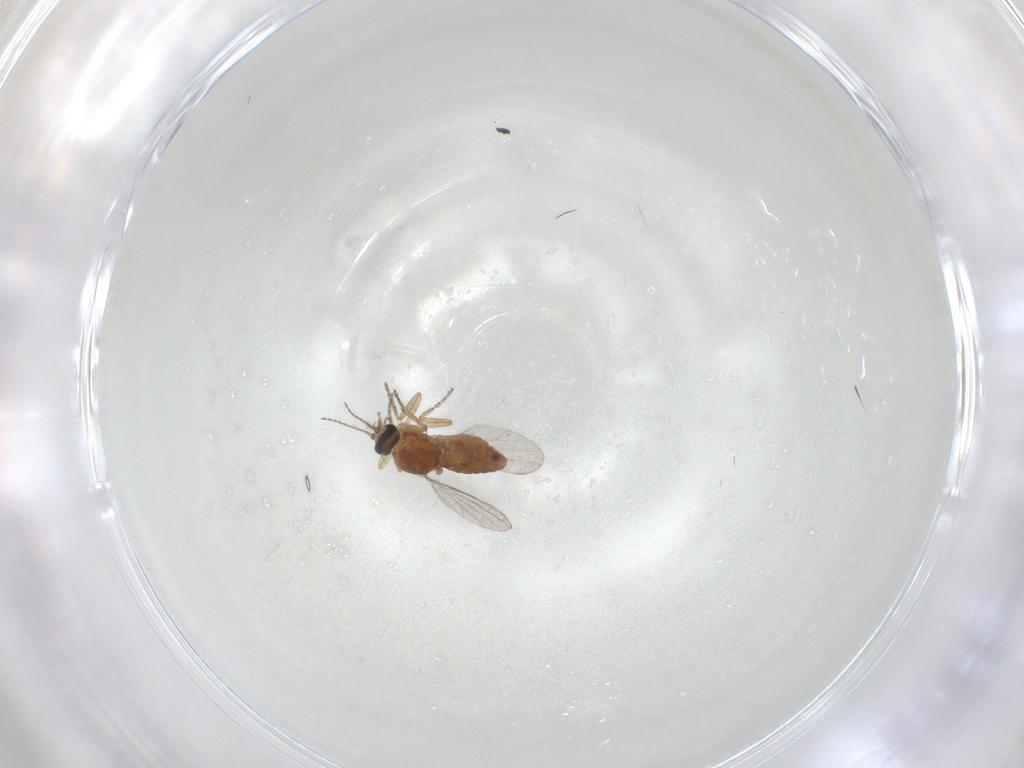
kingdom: Animalia
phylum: Arthropoda
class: Insecta
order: Diptera
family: Ceratopogonidae
